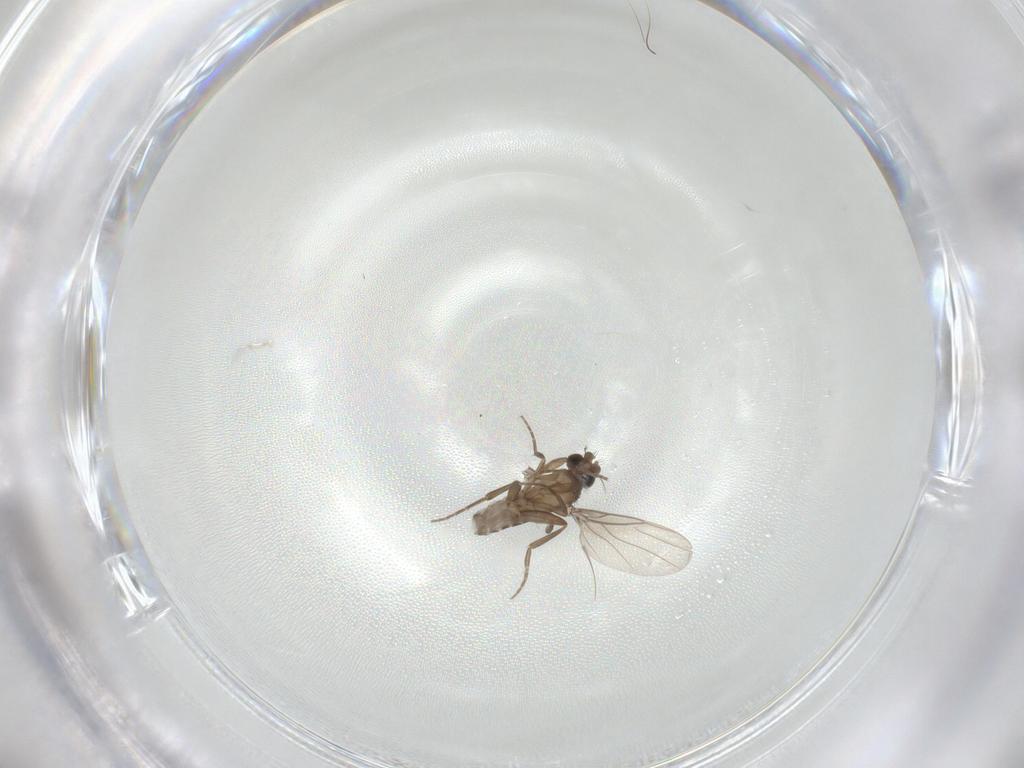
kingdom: Animalia
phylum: Arthropoda
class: Insecta
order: Diptera
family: Phoridae
